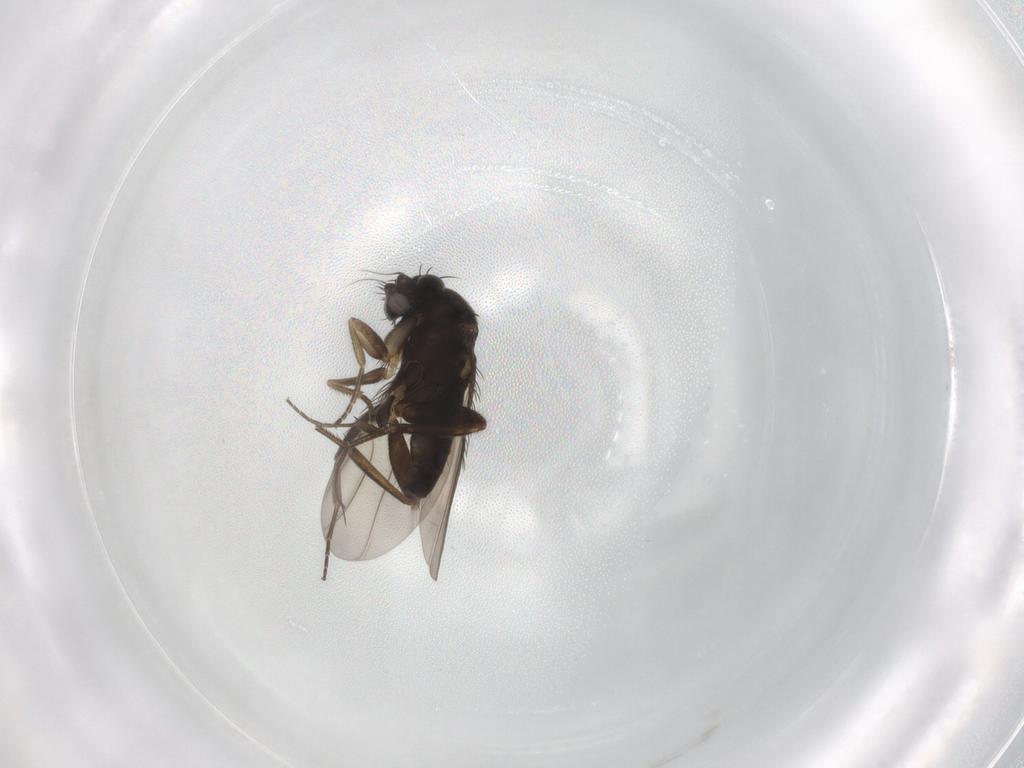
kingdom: Animalia
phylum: Arthropoda
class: Insecta
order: Diptera
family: Phoridae
